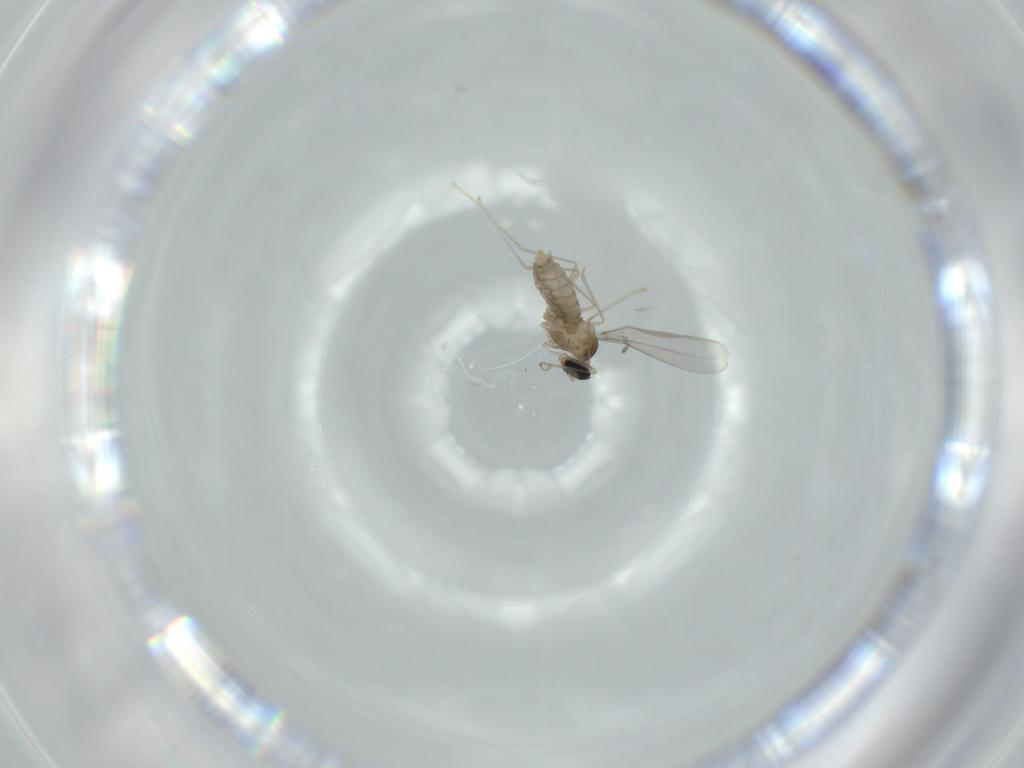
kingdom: Animalia
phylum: Arthropoda
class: Insecta
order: Diptera
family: Cecidomyiidae
